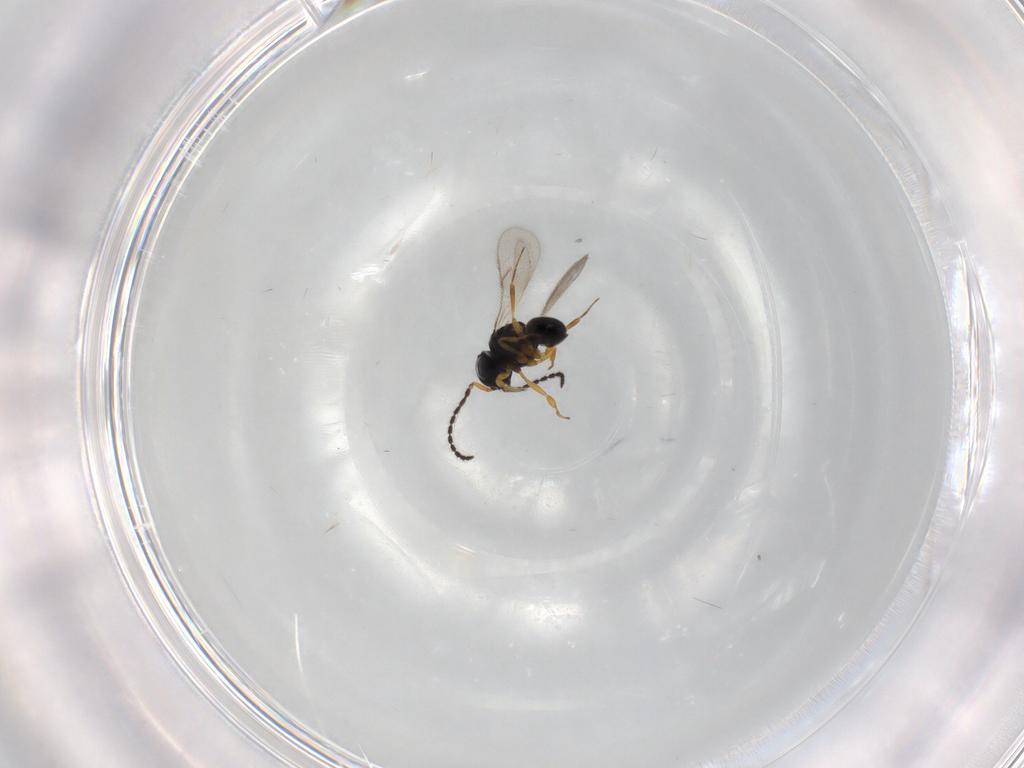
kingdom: Animalia
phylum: Arthropoda
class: Insecta
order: Hymenoptera
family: Scelionidae
